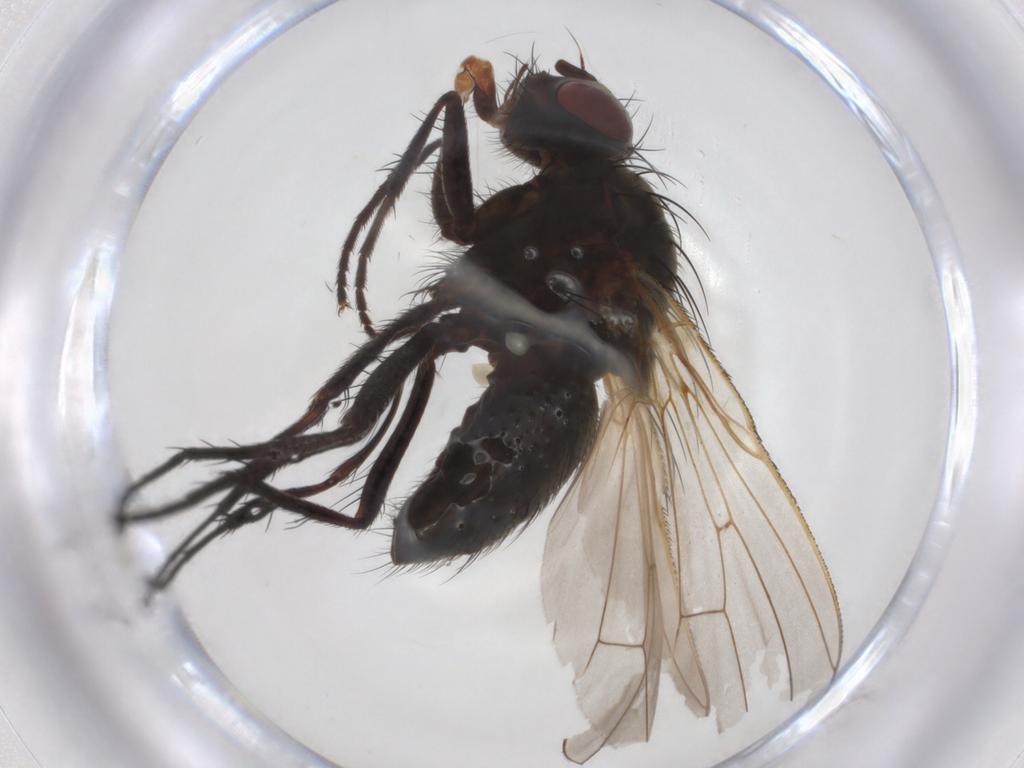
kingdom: Animalia
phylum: Arthropoda
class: Insecta
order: Diptera
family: Anthomyiidae
